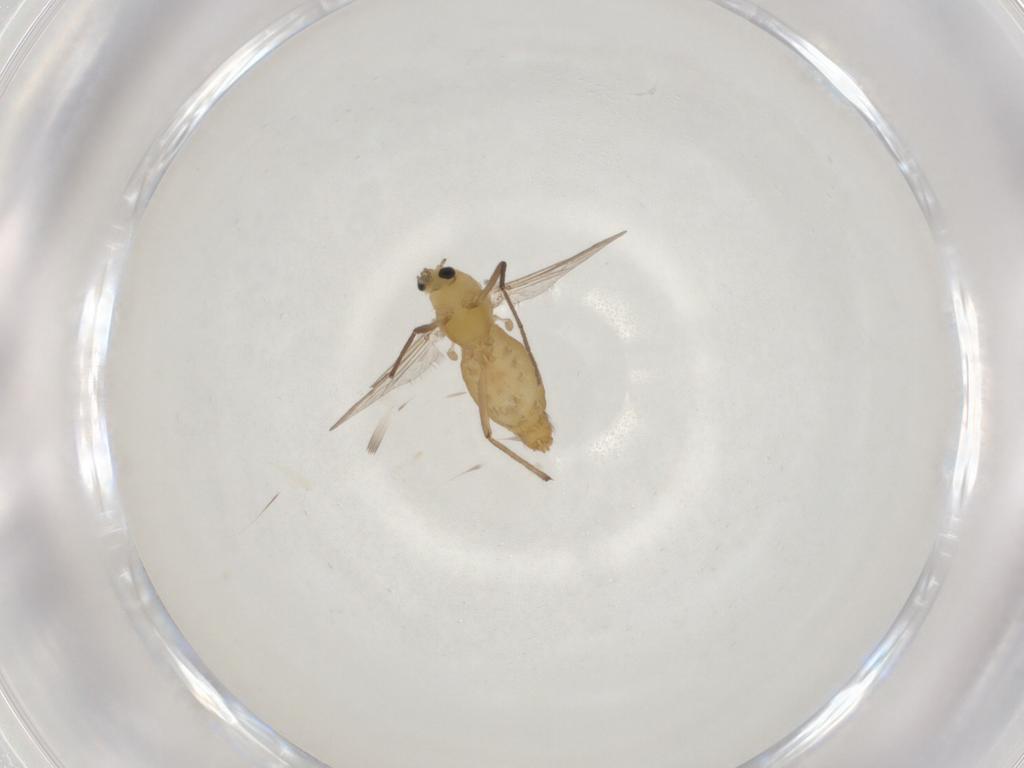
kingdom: Animalia
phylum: Arthropoda
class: Insecta
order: Diptera
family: Chironomidae
